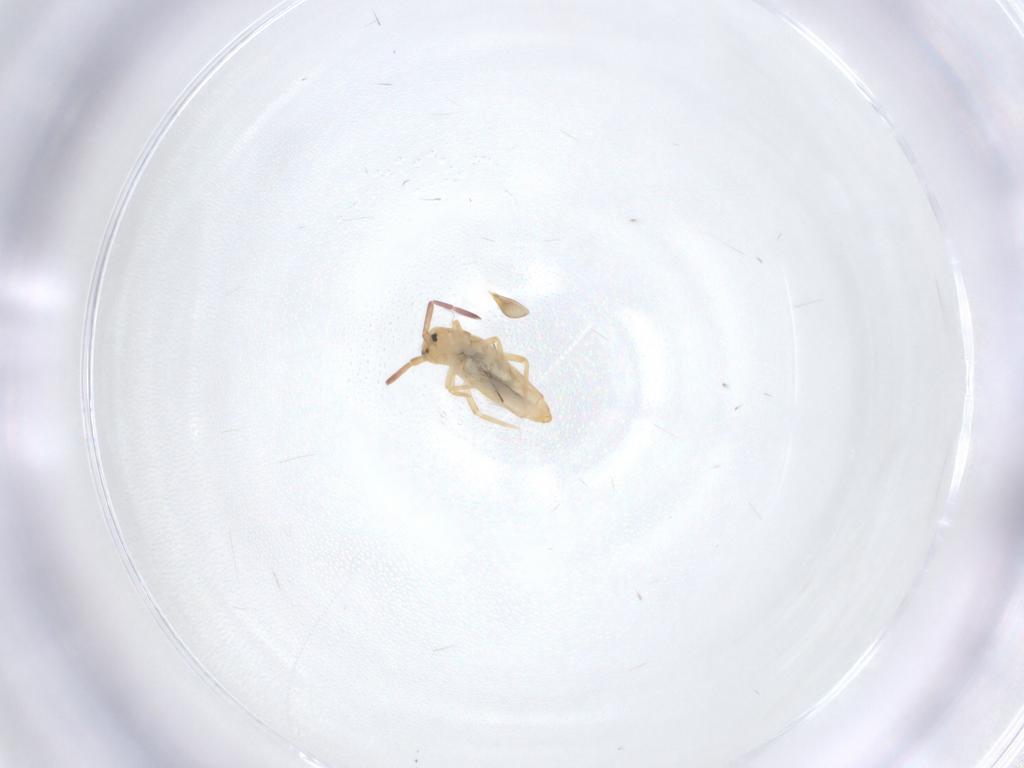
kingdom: Animalia
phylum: Arthropoda
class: Collembola
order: Entomobryomorpha
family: Entomobryidae
